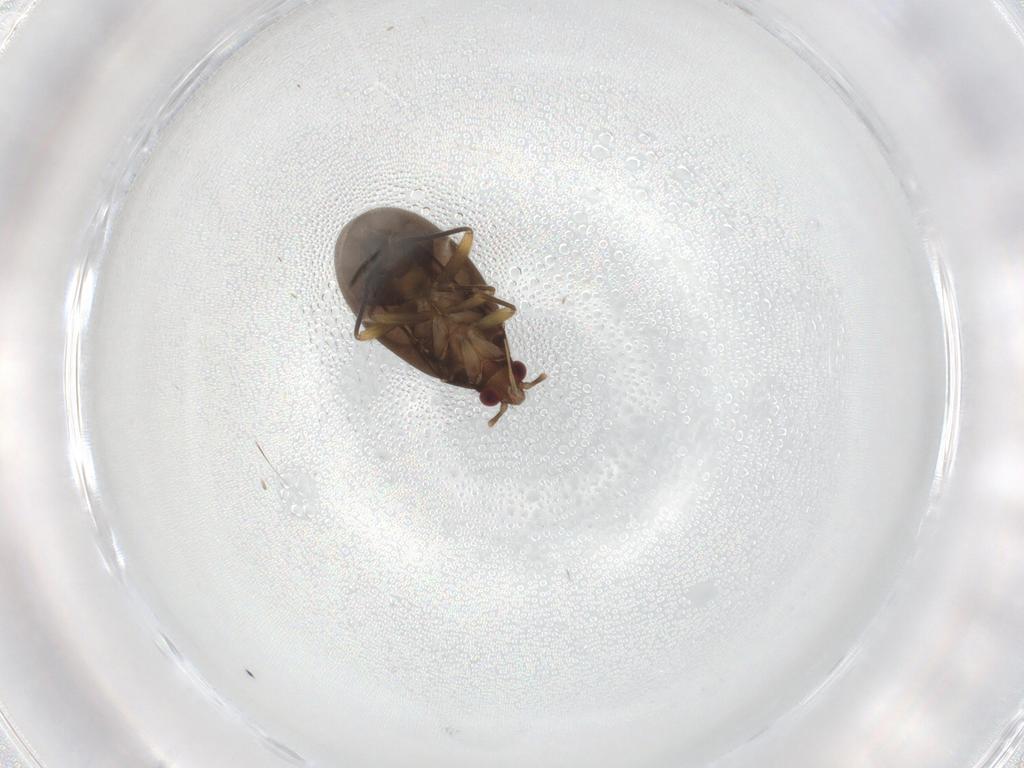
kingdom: Animalia
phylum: Arthropoda
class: Insecta
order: Hemiptera
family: Ceratocombidae
